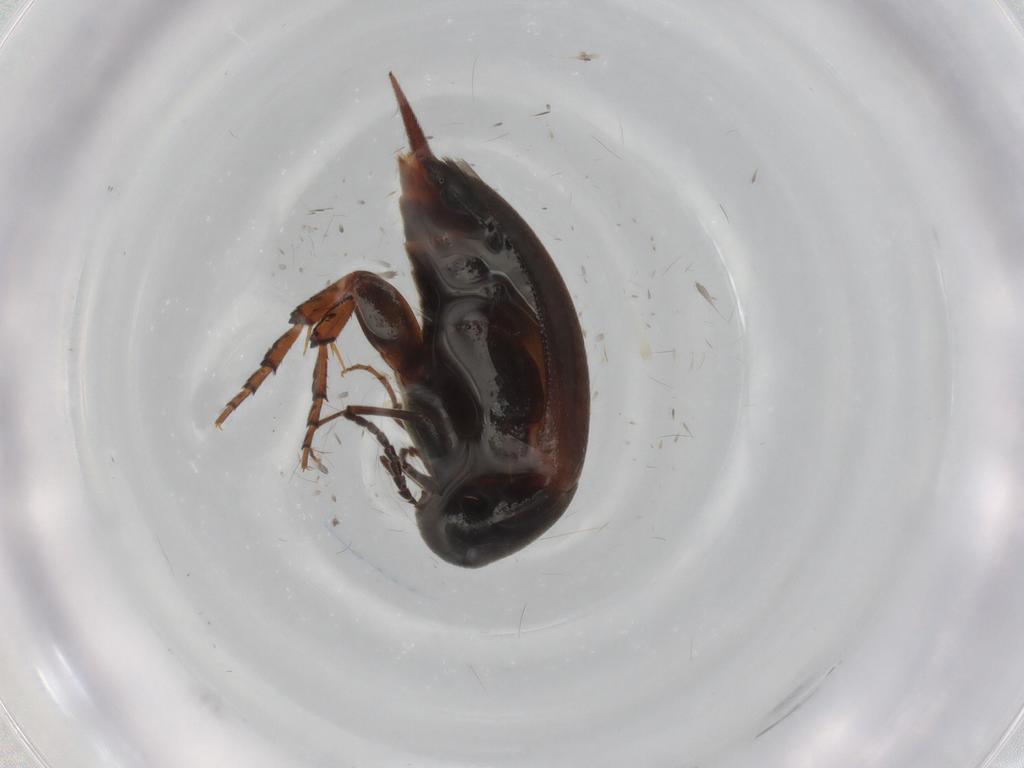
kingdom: Animalia
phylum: Arthropoda
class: Insecta
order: Coleoptera
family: Mordellidae
